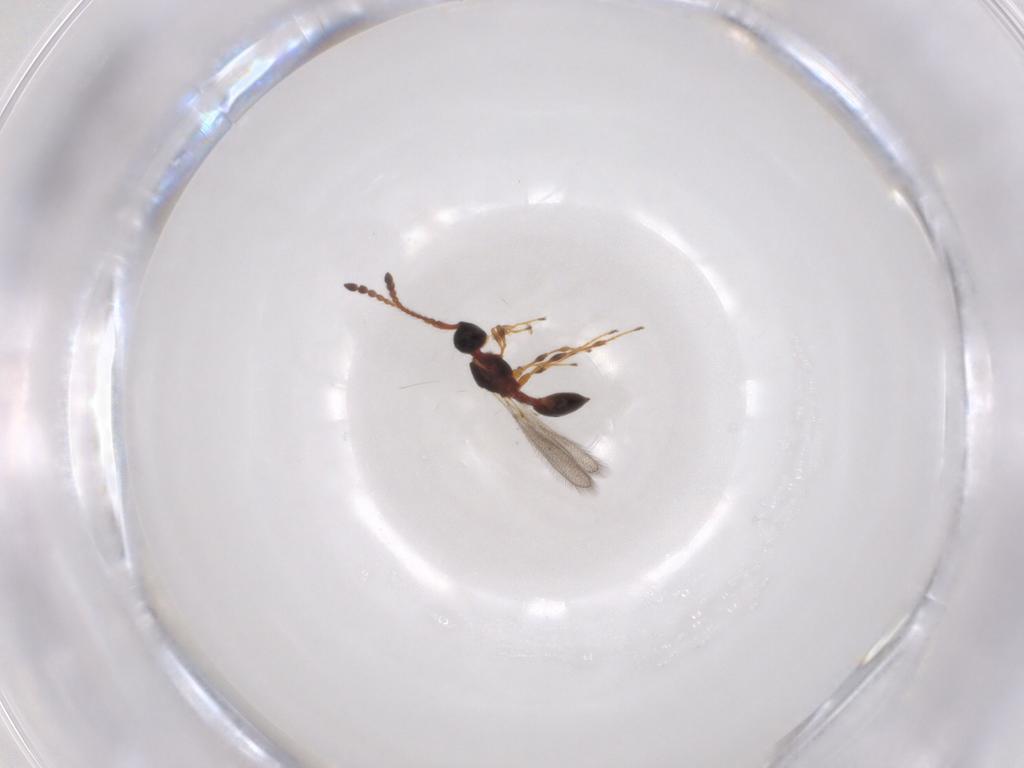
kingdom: Animalia
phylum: Arthropoda
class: Insecta
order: Hymenoptera
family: Diapriidae
